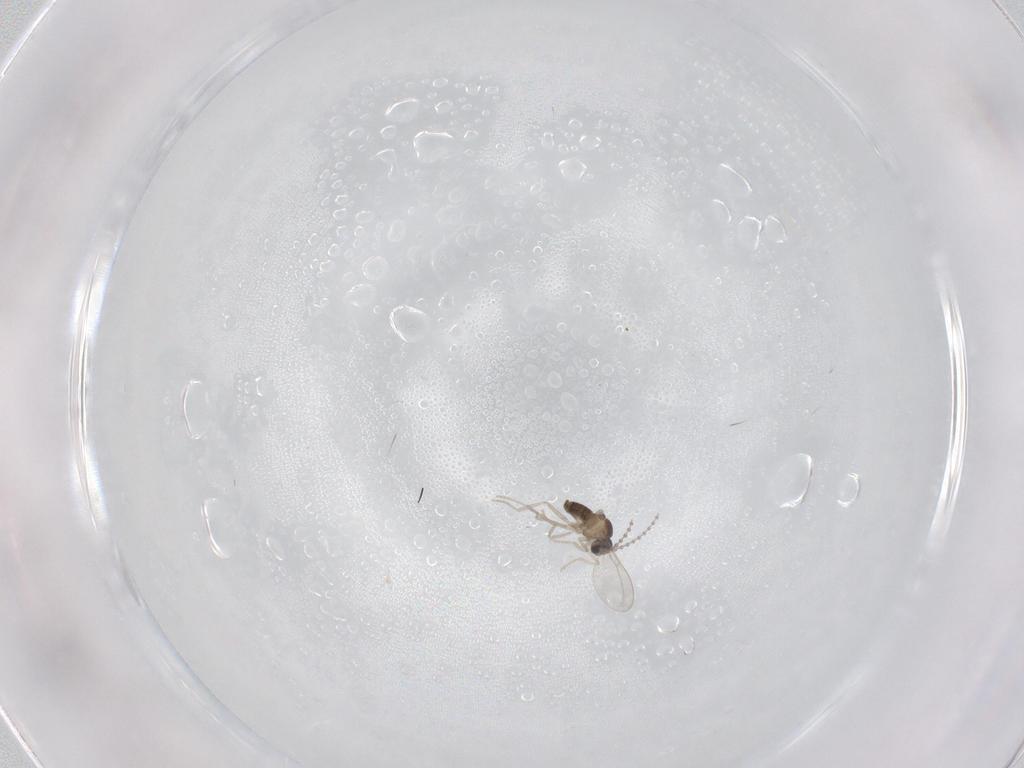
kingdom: Animalia
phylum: Arthropoda
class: Insecta
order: Diptera
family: Cecidomyiidae
